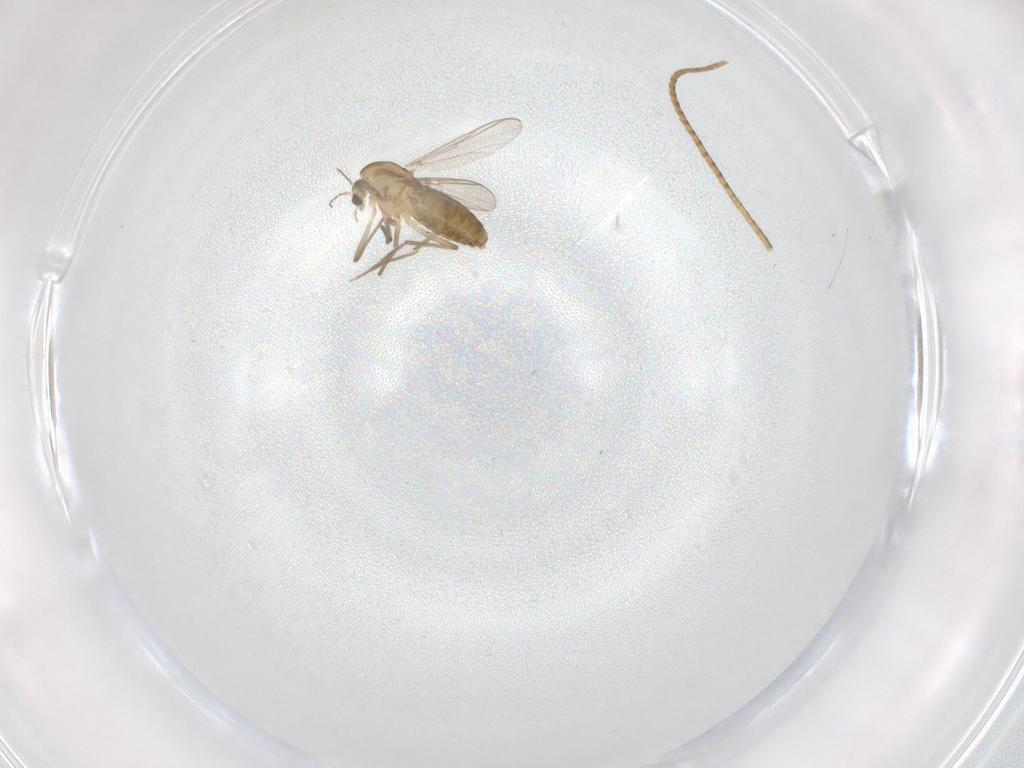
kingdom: Animalia
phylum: Arthropoda
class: Insecta
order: Diptera
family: Chironomidae
